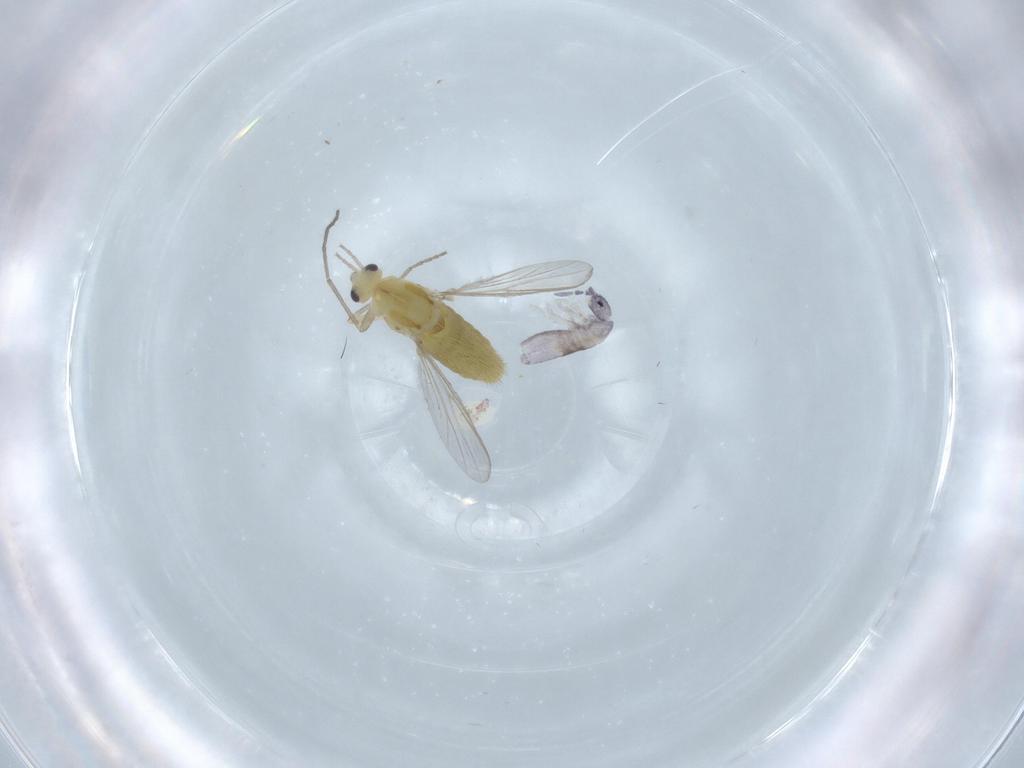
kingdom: Animalia
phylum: Arthropoda
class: Insecta
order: Diptera
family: Chironomidae
